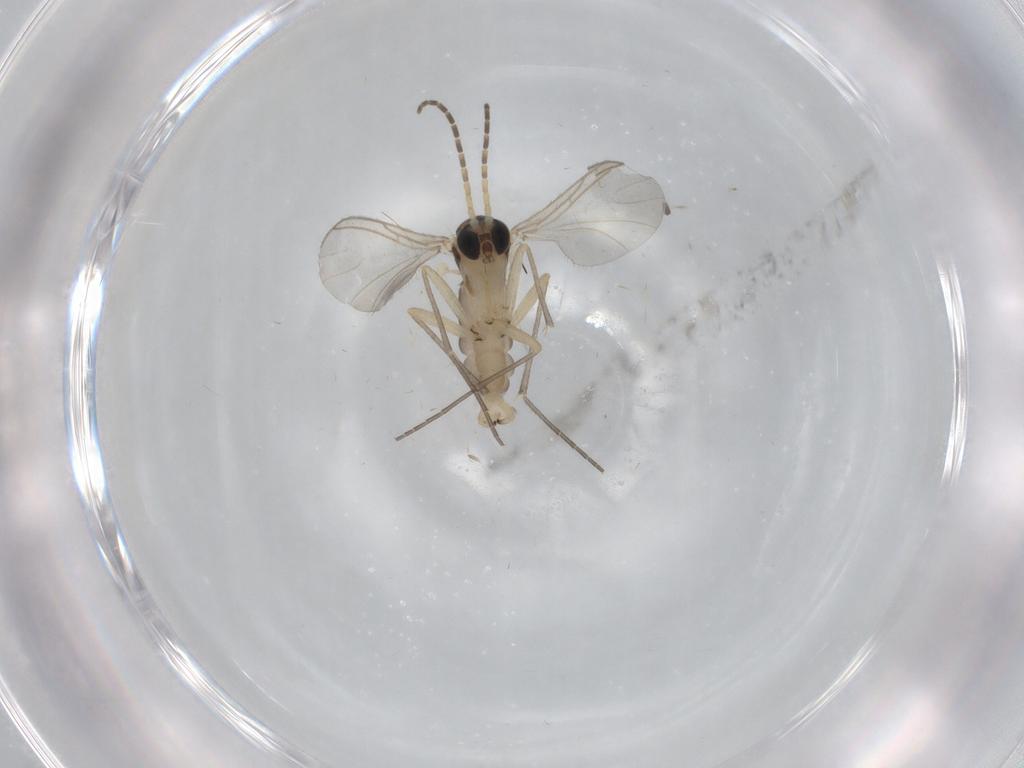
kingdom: Animalia
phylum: Arthropoda
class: Insecta
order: Diptera
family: Sciaridae
